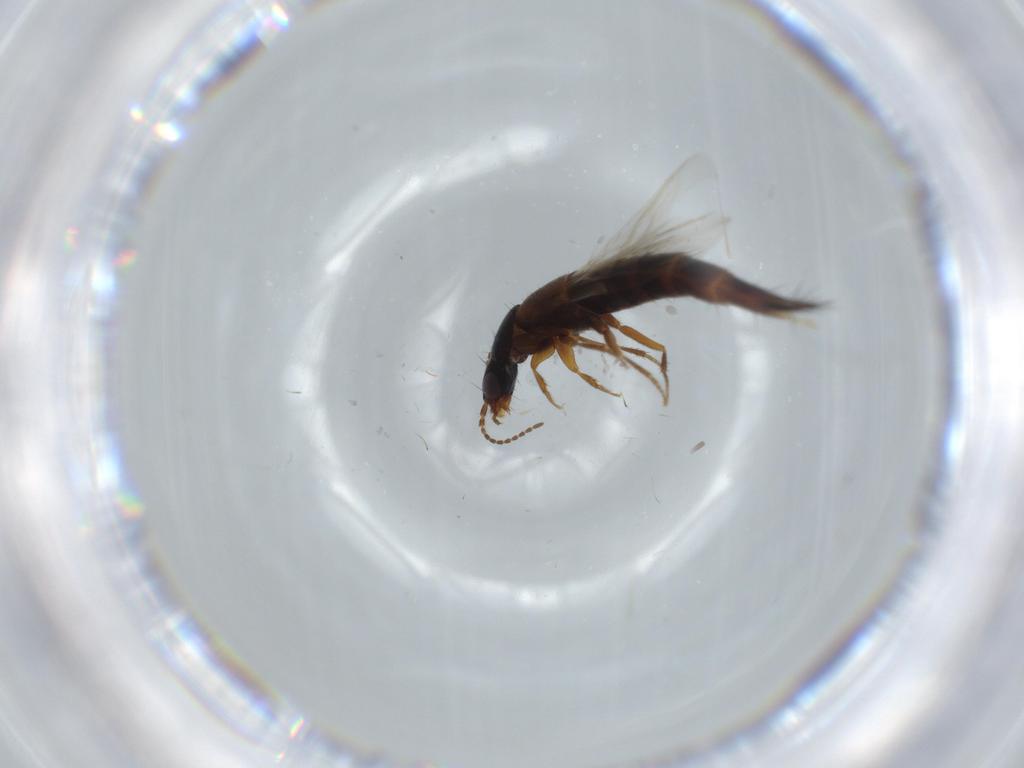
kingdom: Animalia
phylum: Arthropoda
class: Insecta
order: Coleoptera
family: Staphylinidae
